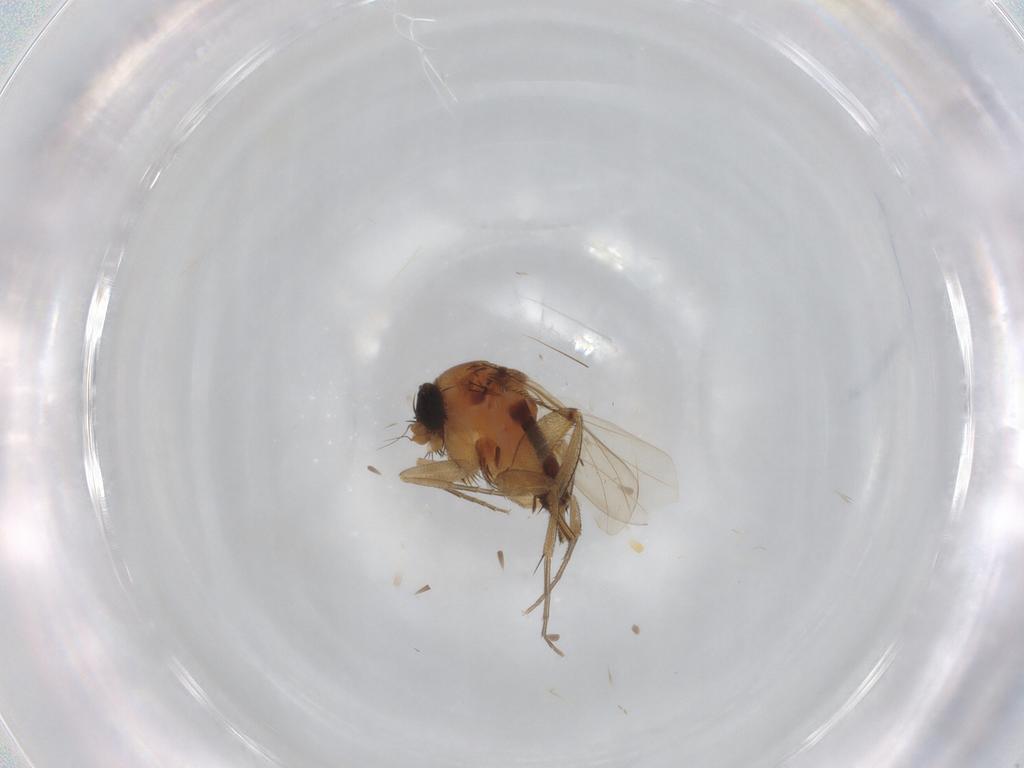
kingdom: Animalia
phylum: Arthropoda
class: Insecta
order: Diptera
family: Phoridae
